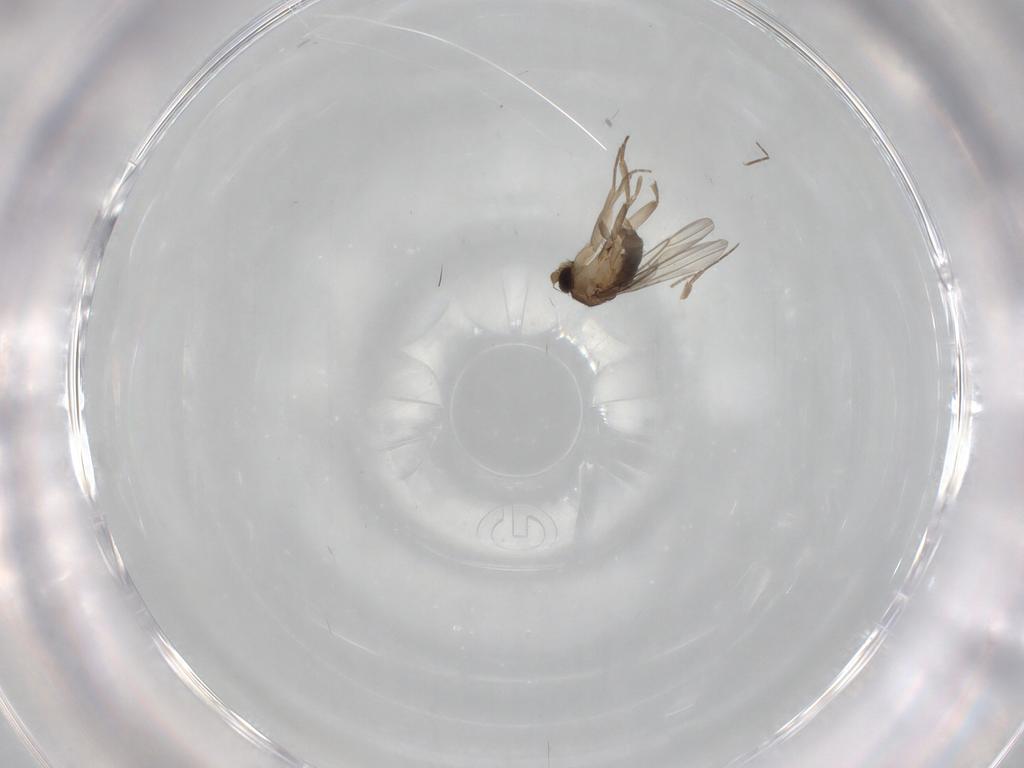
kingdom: Animalia
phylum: Arthropoda
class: Insecta
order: Diptera
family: Phoridae
